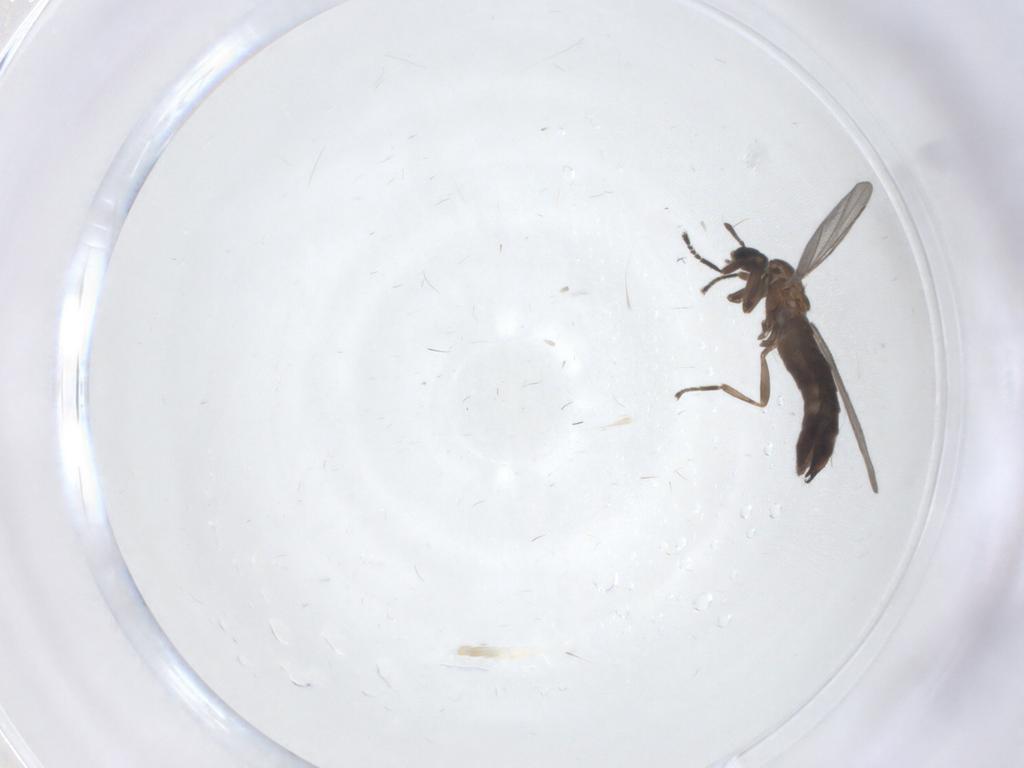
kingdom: Animalia
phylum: Arthropoda
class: Insecta
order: Diptera
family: Scatopsidae
